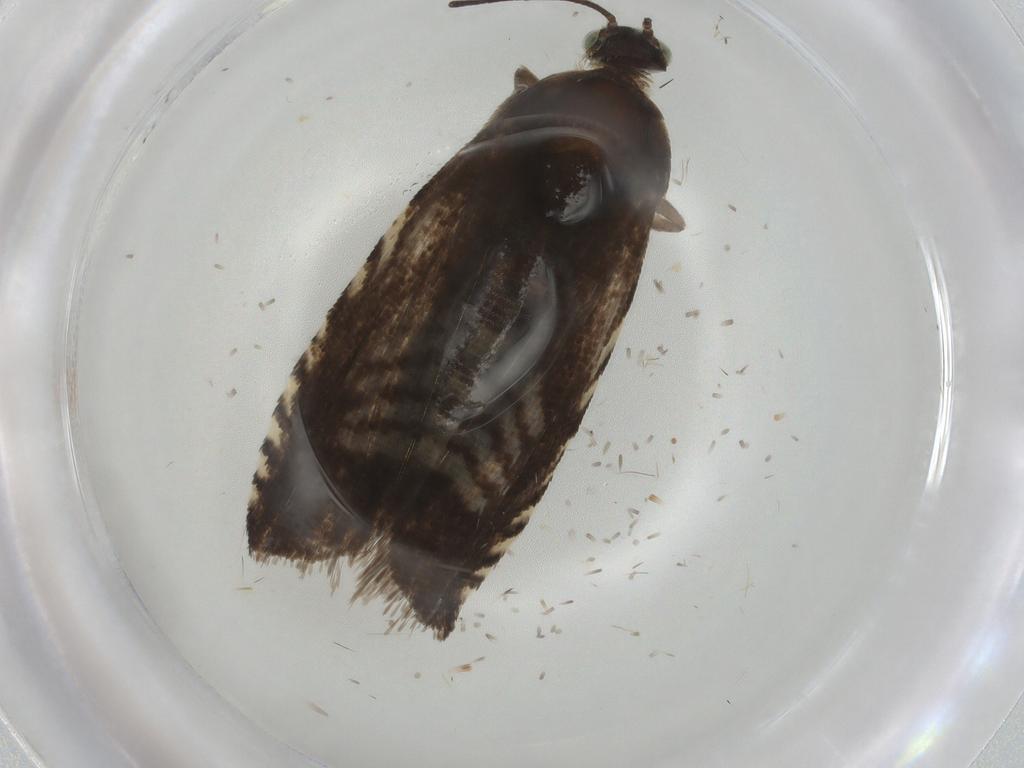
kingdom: Animalia
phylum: Arthropoda
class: Insecta
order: Lepidoptera
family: Tortricidae
